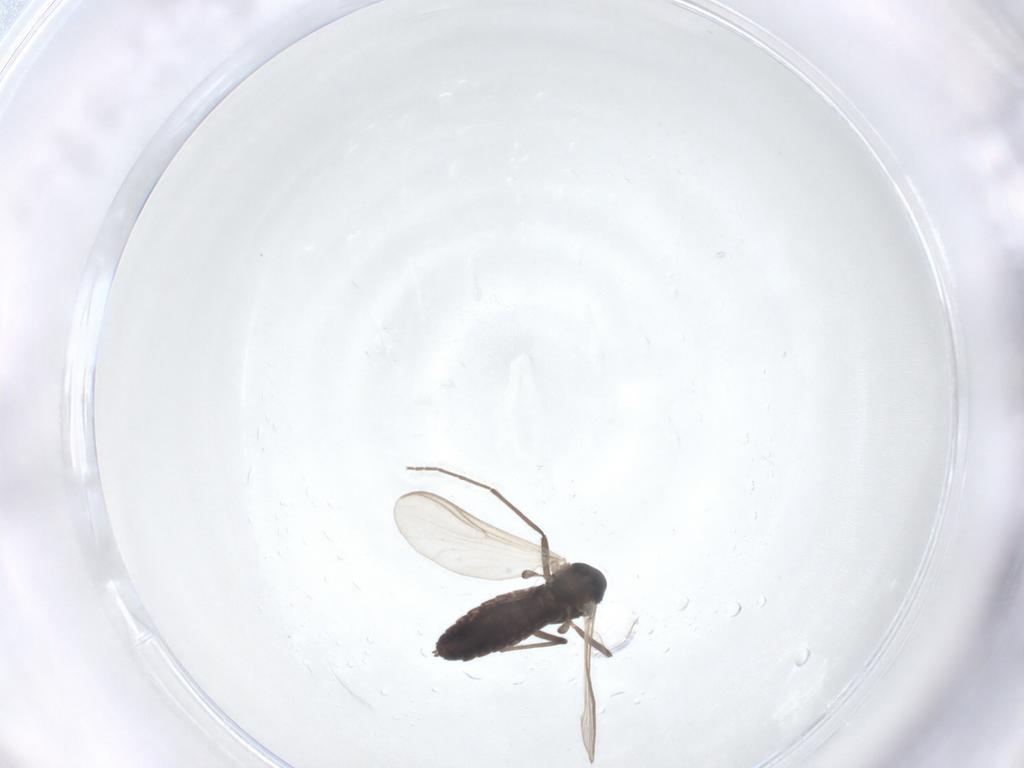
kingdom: Animalia
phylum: Arthropoda
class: Insecta
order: Diptera
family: Chironomidae
